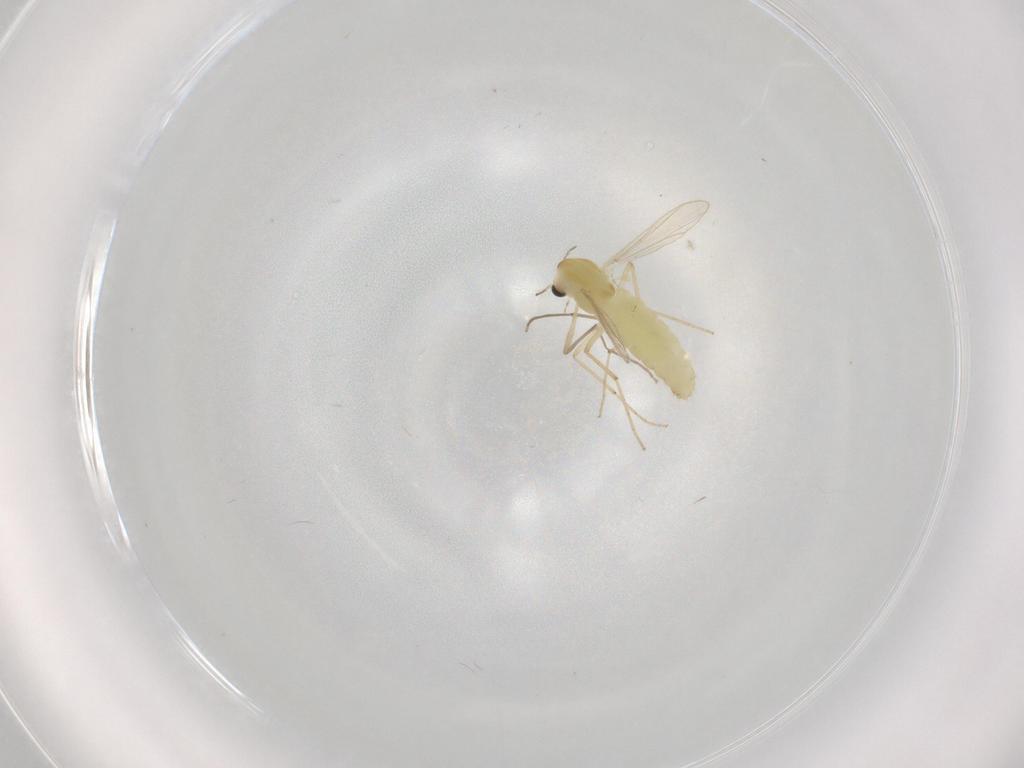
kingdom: Animalia
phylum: Arthropoda
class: Insecta
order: Diptera
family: Chironomidae
